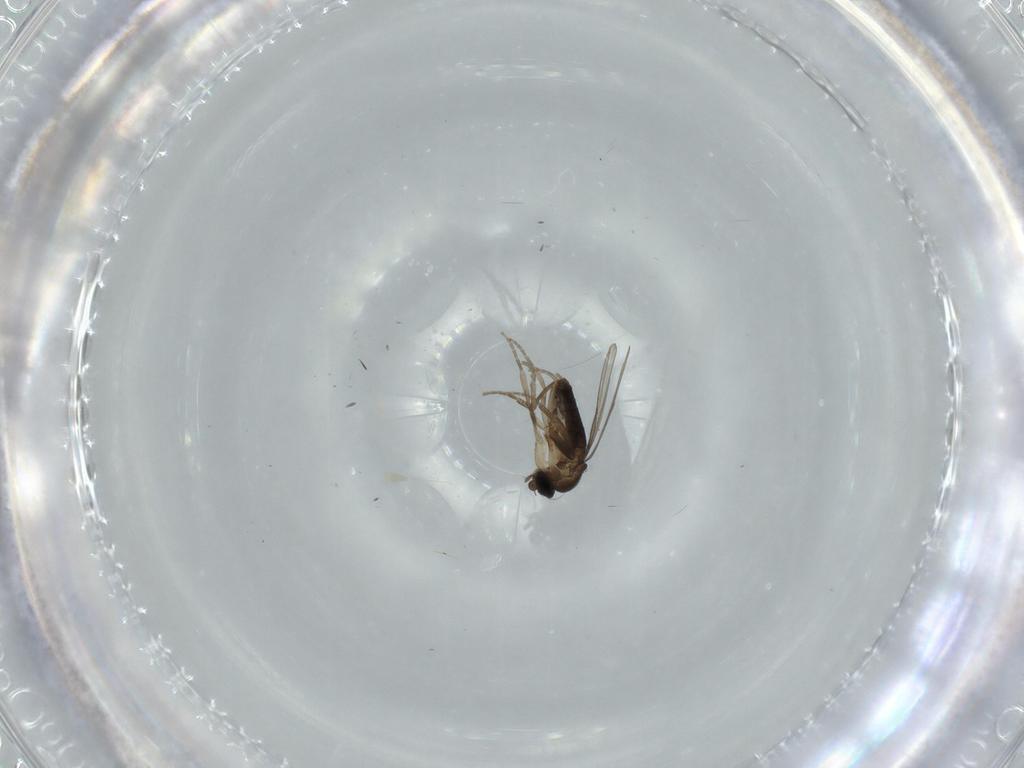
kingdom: Animalia
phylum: Arthropoda
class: Insecta
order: Diptera
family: Phoridae
